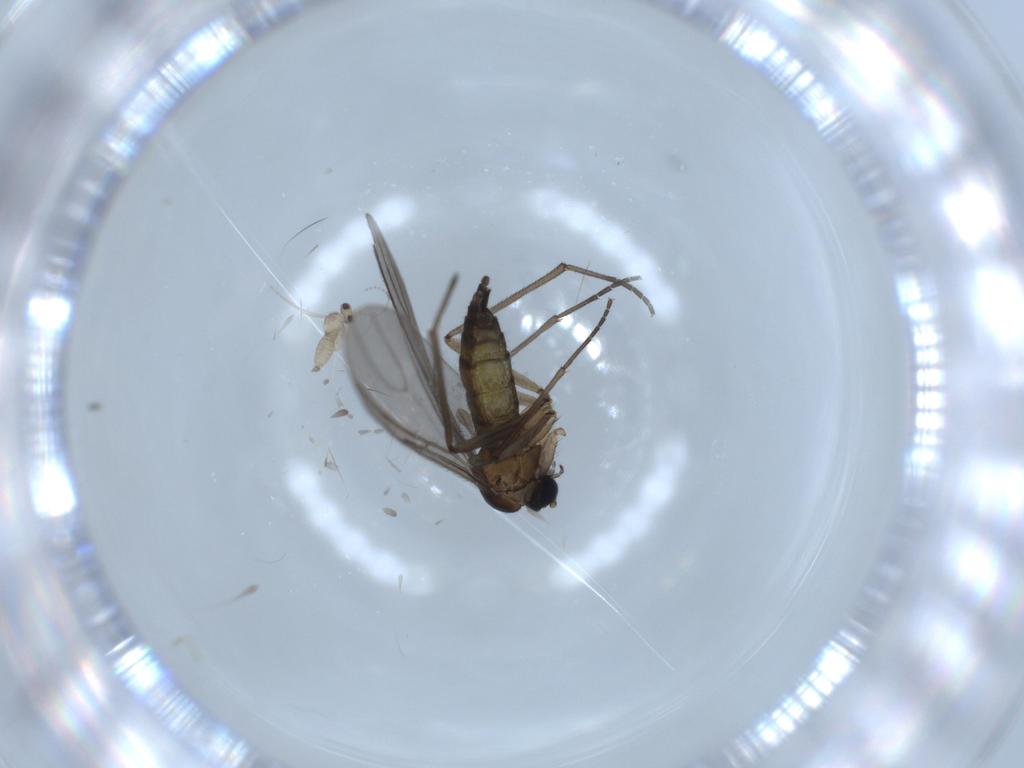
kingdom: Animalia
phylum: Arthropoda
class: Insecta
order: Diptera
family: Sciaridae
